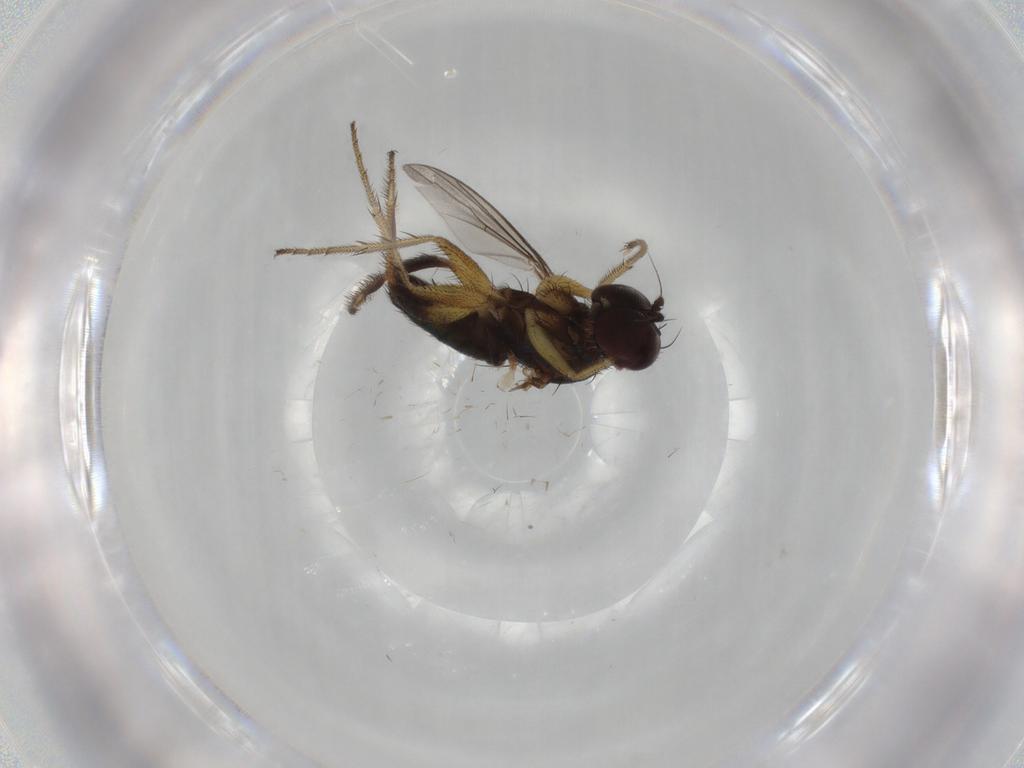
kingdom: Animalia
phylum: Arthropoda
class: Insecta
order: Diptera
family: Dolichopodidae
